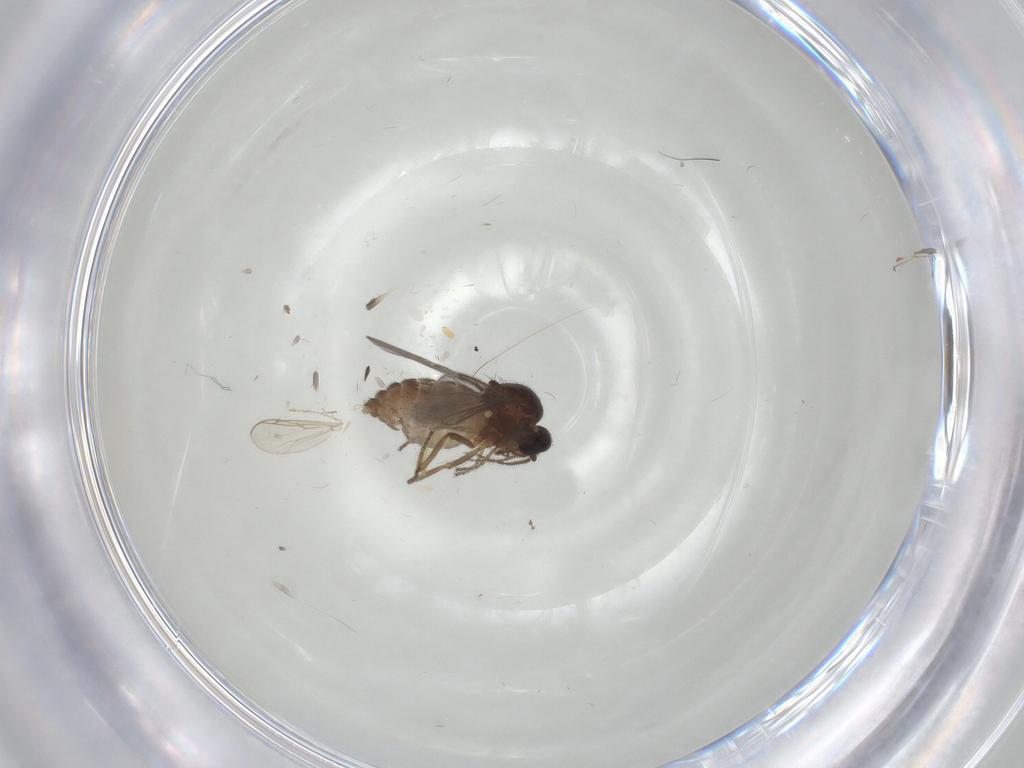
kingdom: Animalia
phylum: Arthropoda
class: Insecta
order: Diptera
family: Ceratopogonidae
